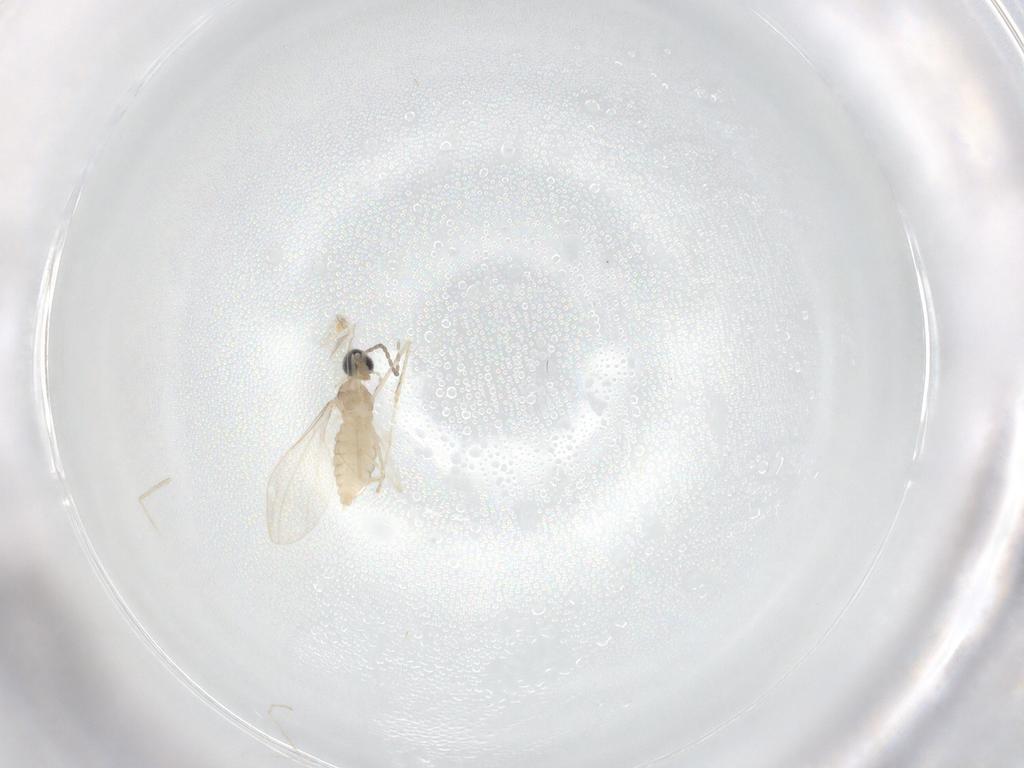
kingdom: Animalia
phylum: Arthropoda
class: Insecta
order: Diptera
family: Cecidomyiidae
